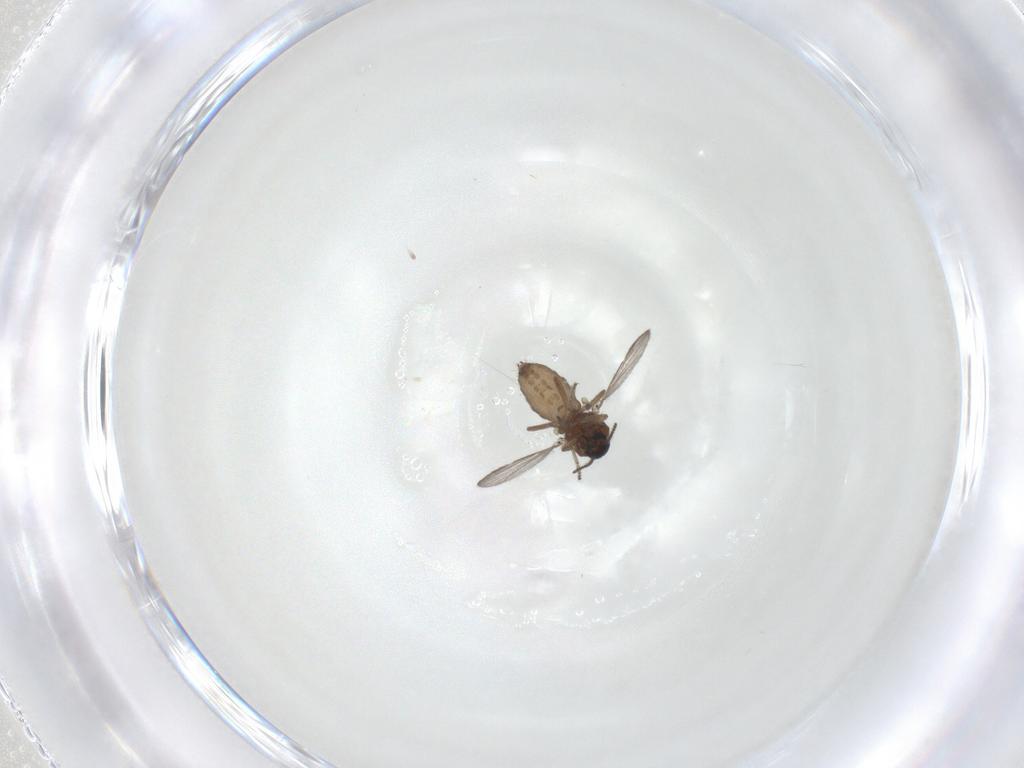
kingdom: Animalia
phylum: Arthropoda
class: Insecta
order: Diptera
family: Ceratopogonidae
